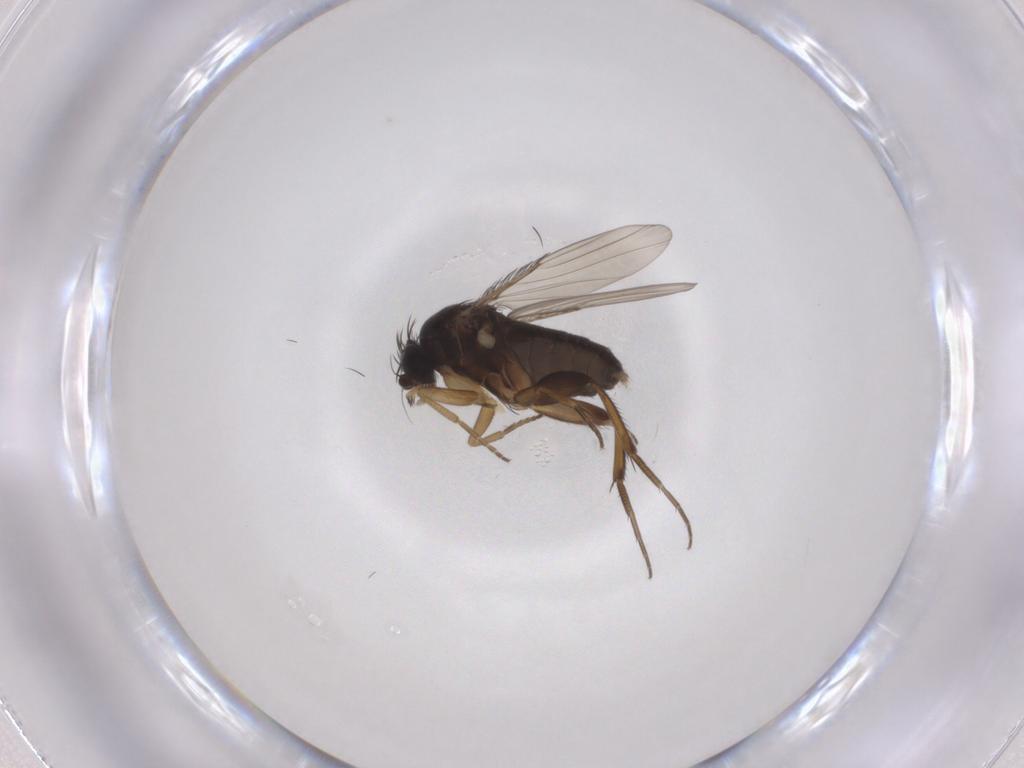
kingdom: Animalia
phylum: Arthropoda
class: Insecta
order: Diptera
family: Phoridae
